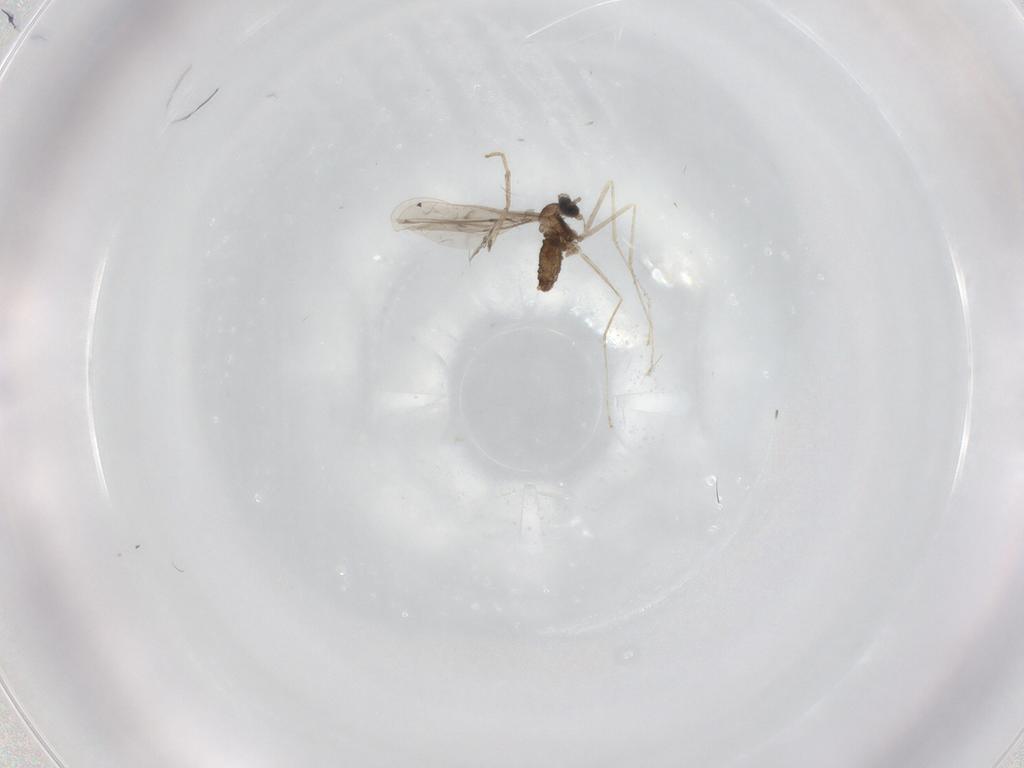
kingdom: Animalia
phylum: Arthropoda
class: Insecta
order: Diptera
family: Cecidomyiidae
